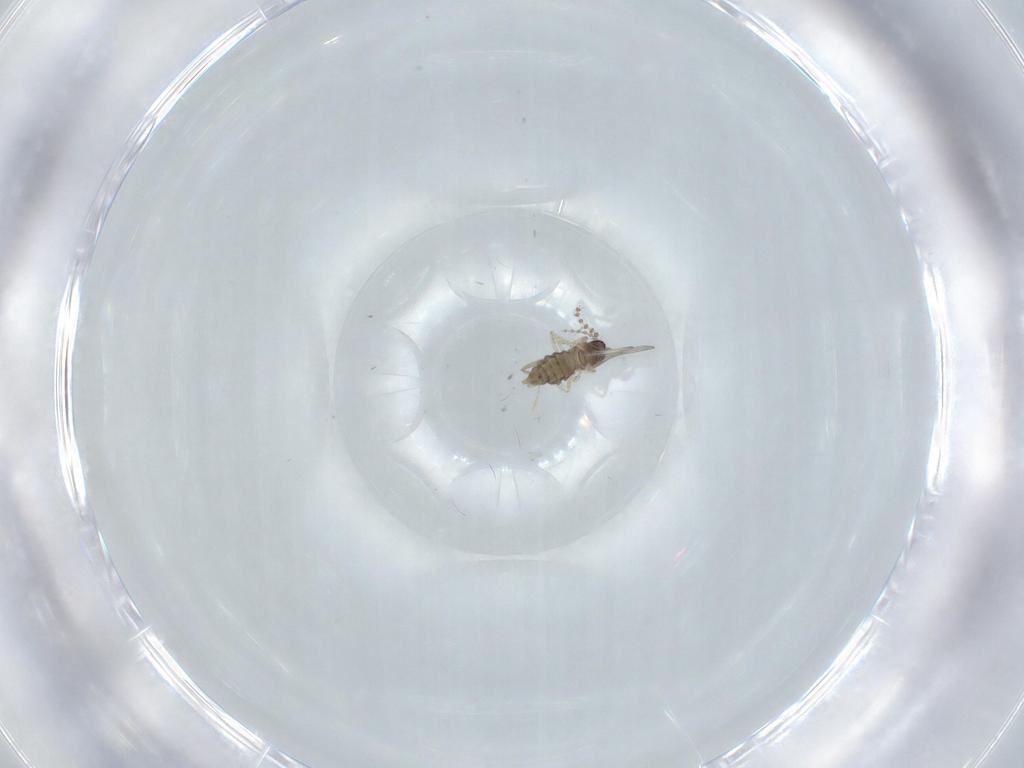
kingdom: Animalia
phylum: Arthropoda
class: Insecta
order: Diptera
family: Cecidomyiidae
